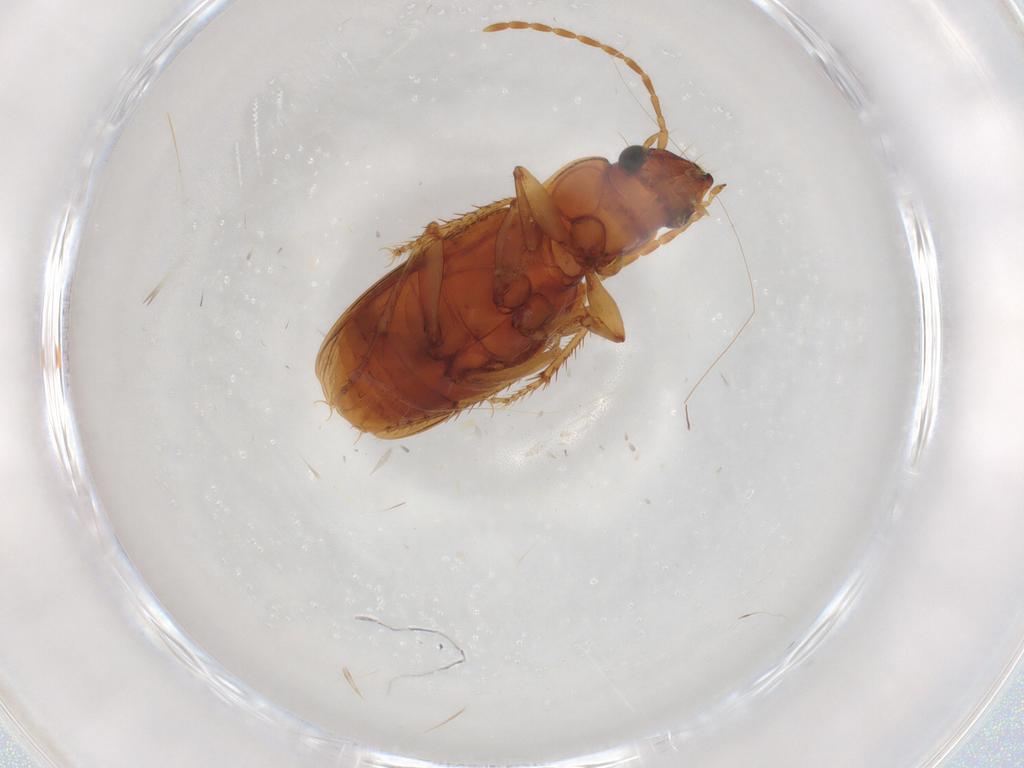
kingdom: Animalia
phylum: Arthropoda
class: Insecta
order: Coleoptera
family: Carabidae
